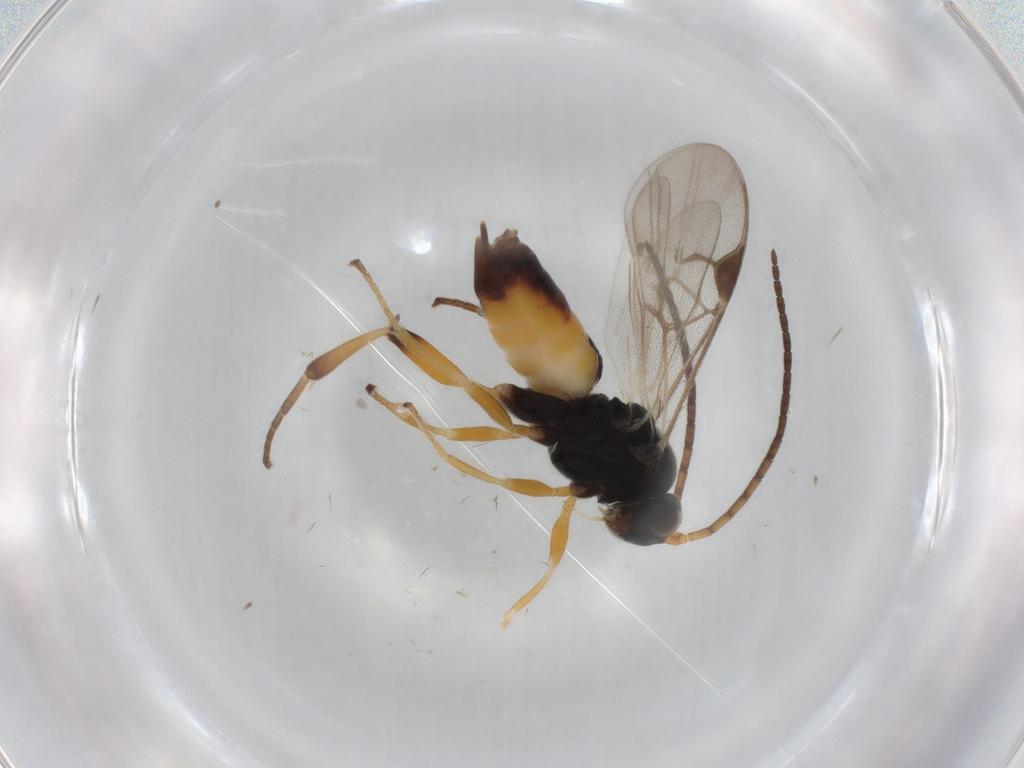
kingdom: Animalia
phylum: Arthropoda
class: Insecta
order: Hymenoptera
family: Braconidae
